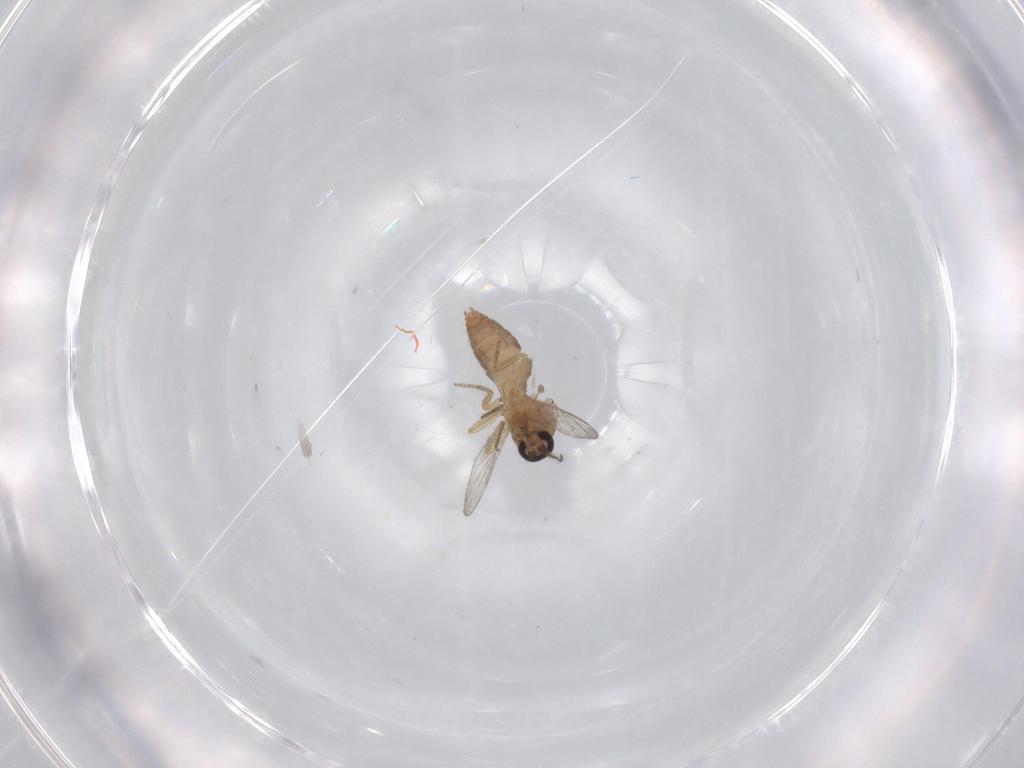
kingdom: Animalia
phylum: Arthropoda
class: Insecta
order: Diptera
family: Ceratopogonidae
